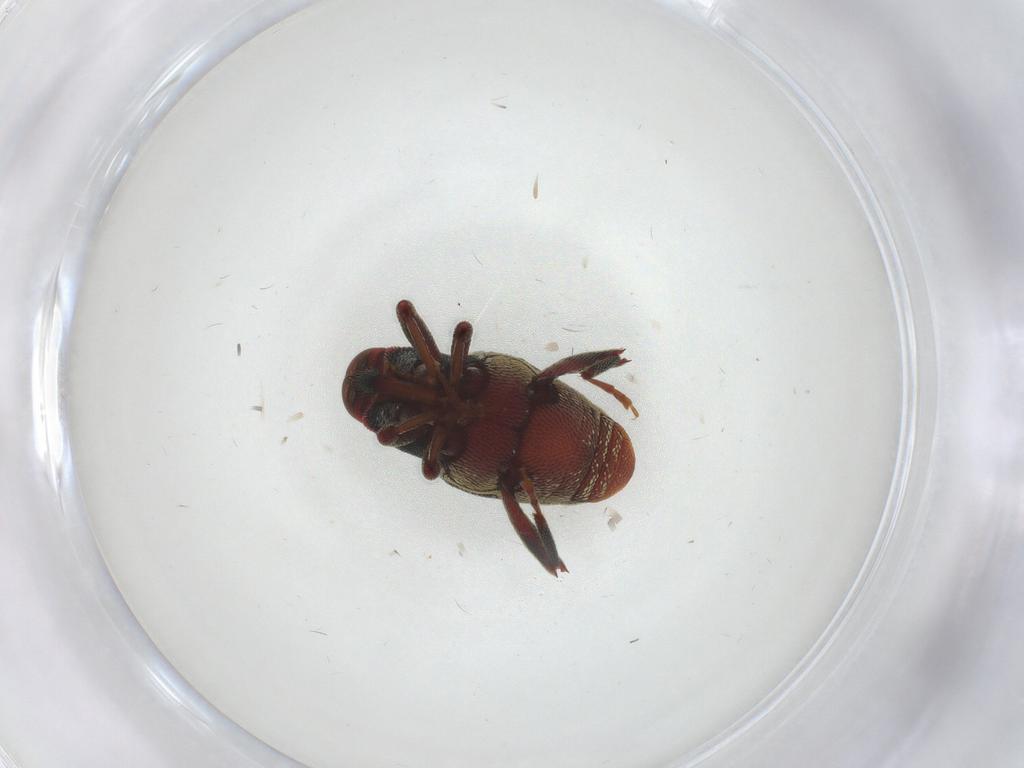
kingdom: Animalia
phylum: Arthropoda
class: Insecta
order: Coleoptera
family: Curculionidae
